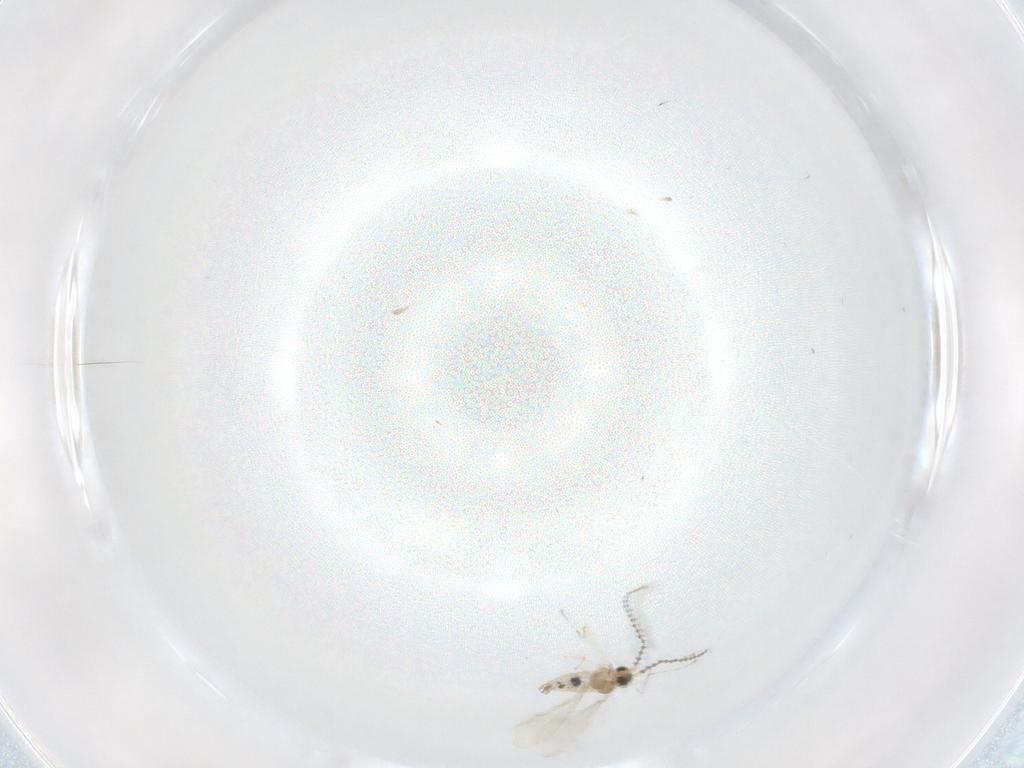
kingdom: Animalia
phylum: Arthropoda
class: Insecta
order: Diptera
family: Cecidomyiidae
